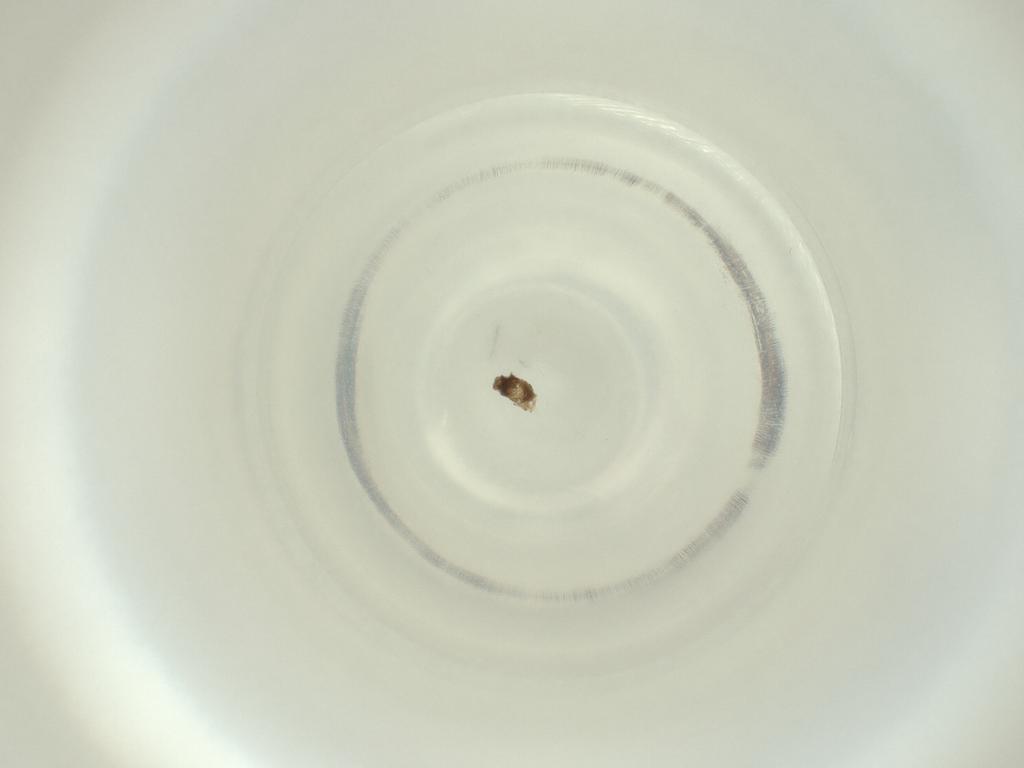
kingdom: Animalia
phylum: Arthropoda
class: Insecta
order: Diptera
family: Cecidomyiidae
